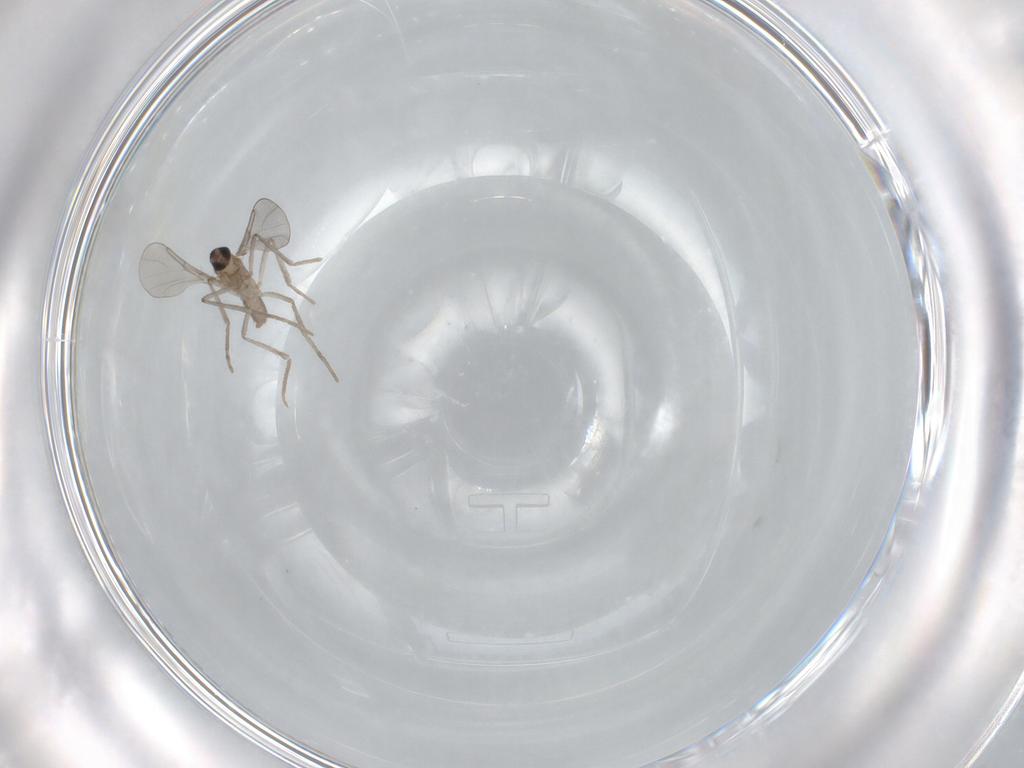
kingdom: Animalia
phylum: Arthropoda
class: Insecta
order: Diptera
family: Cecidomyiidae
